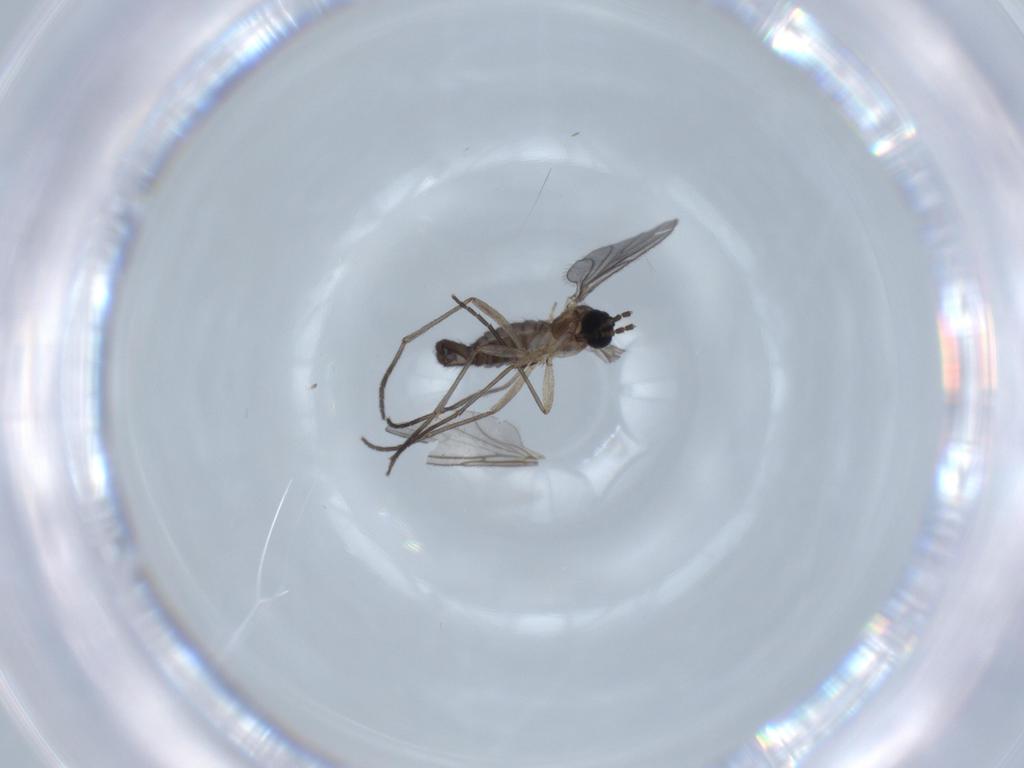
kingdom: Animalia
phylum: Arthropoda
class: Insecta
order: Diptera
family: Sciaridae
